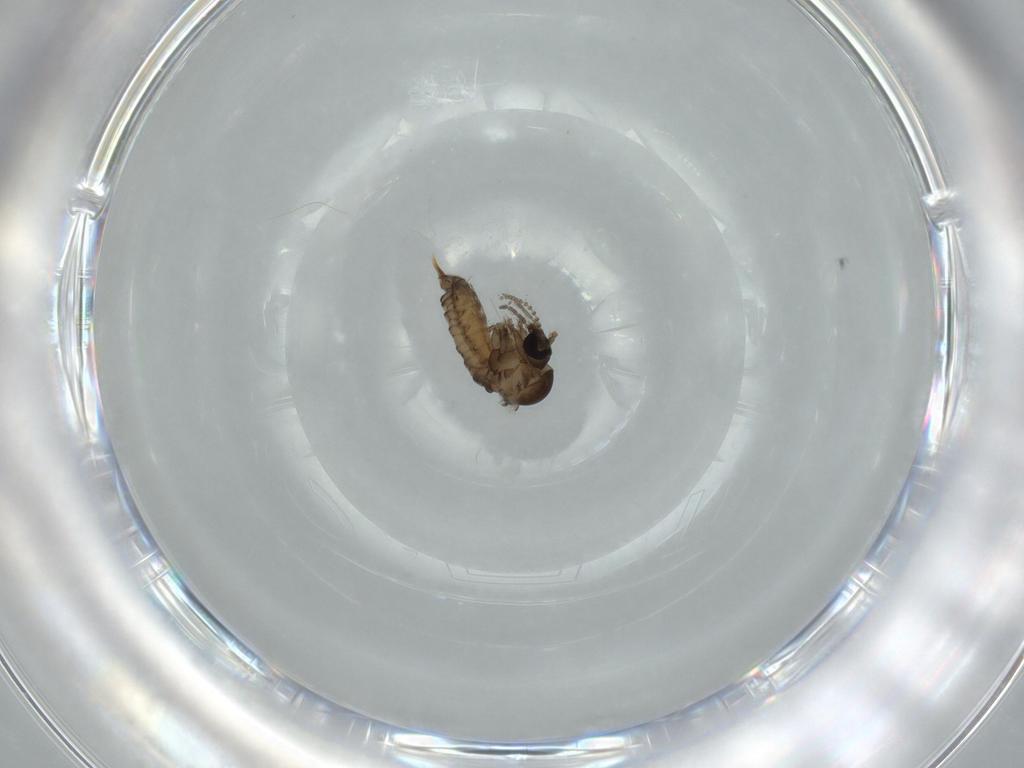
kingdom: Animalia
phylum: Arthropoda
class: Insecta
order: Diptera
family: Psychodidae
